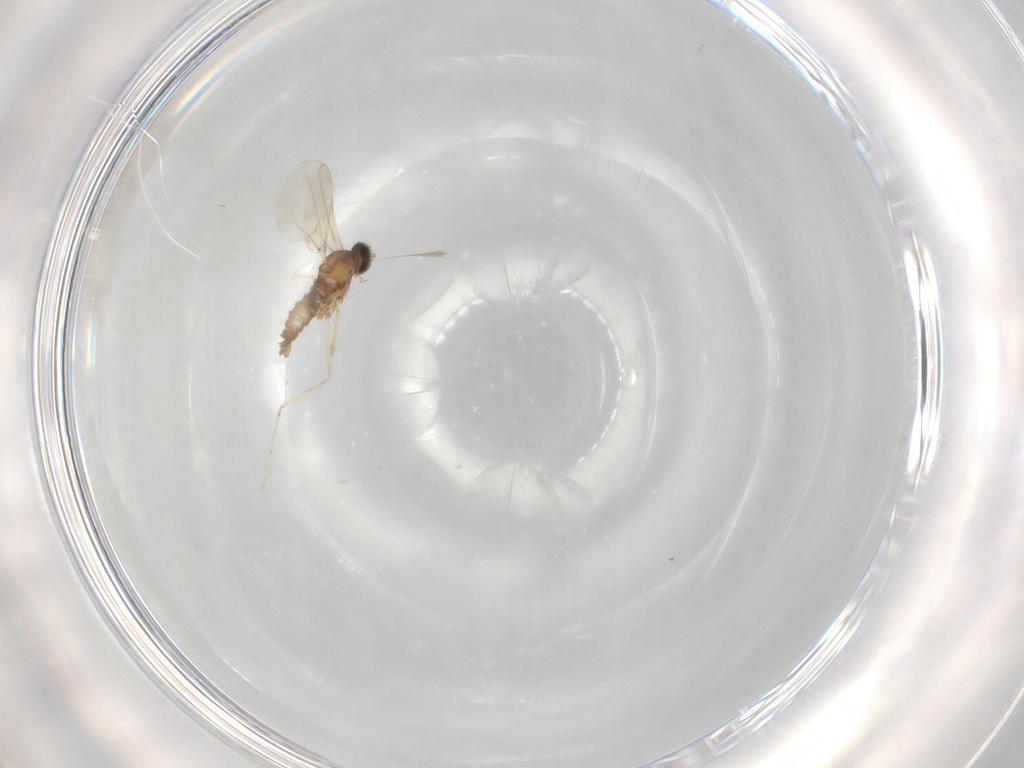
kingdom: Animalia
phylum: Arthropoda
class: Insecta
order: Diptera
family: Cecidomyiidae
